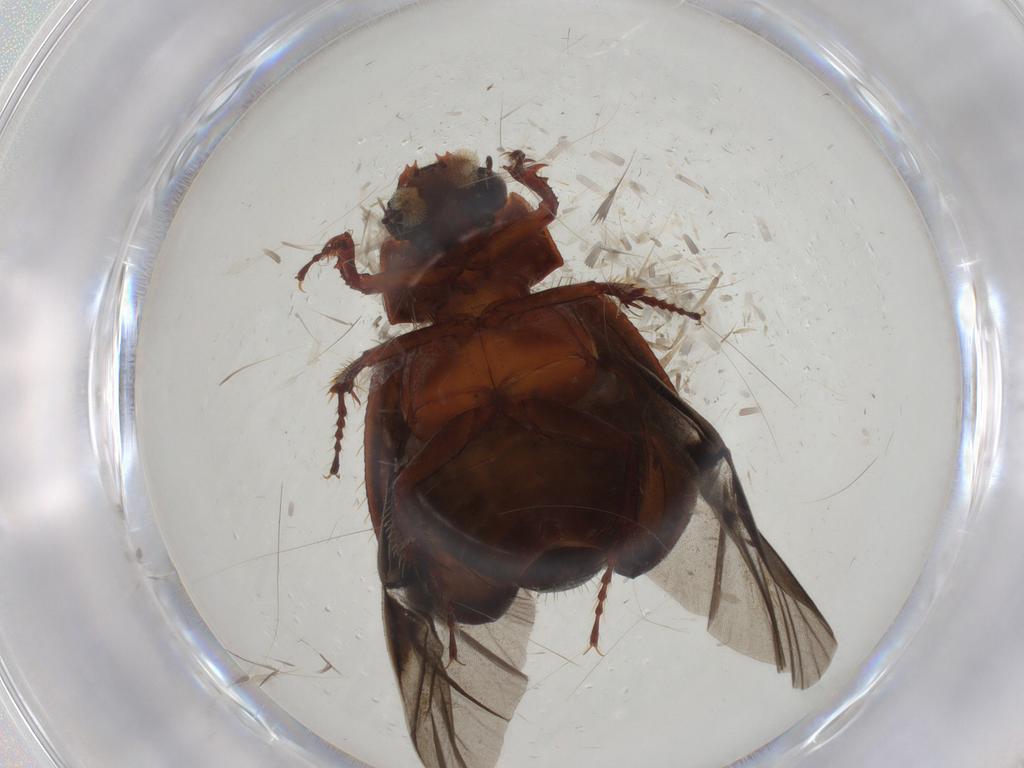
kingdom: Animalia
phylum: Arthropoda
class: Insecta
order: Coleoptera
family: Hybosoridae
